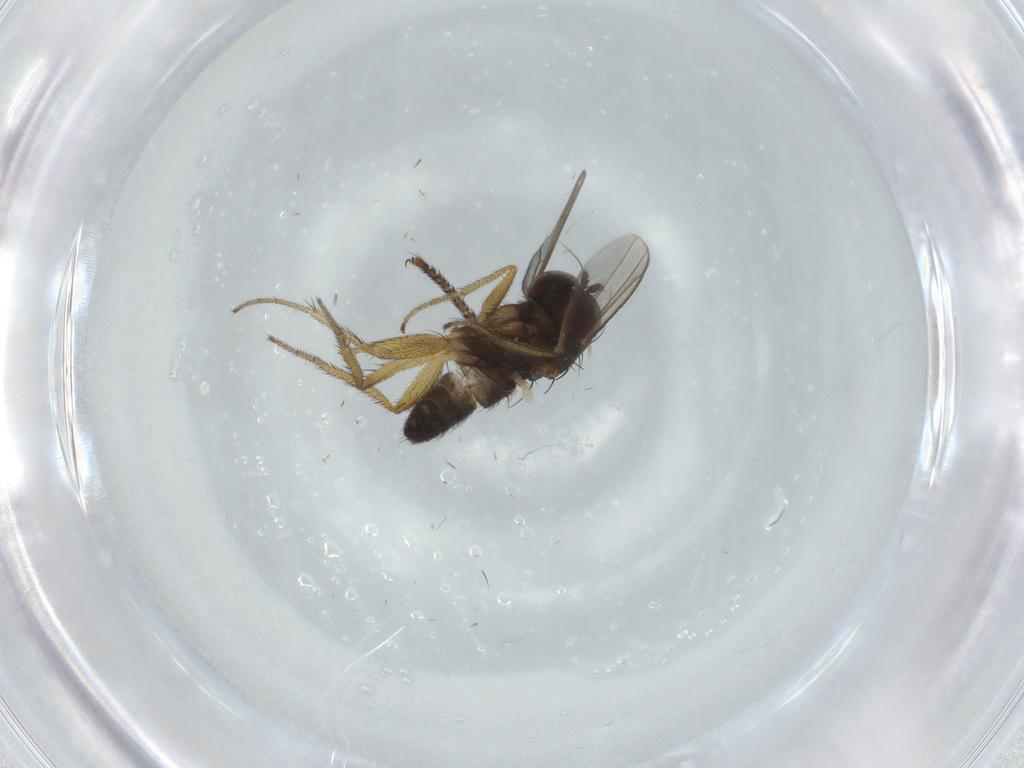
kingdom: Animalia
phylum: Arthropoda
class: Insecta
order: Diptera
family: Micropezidae
